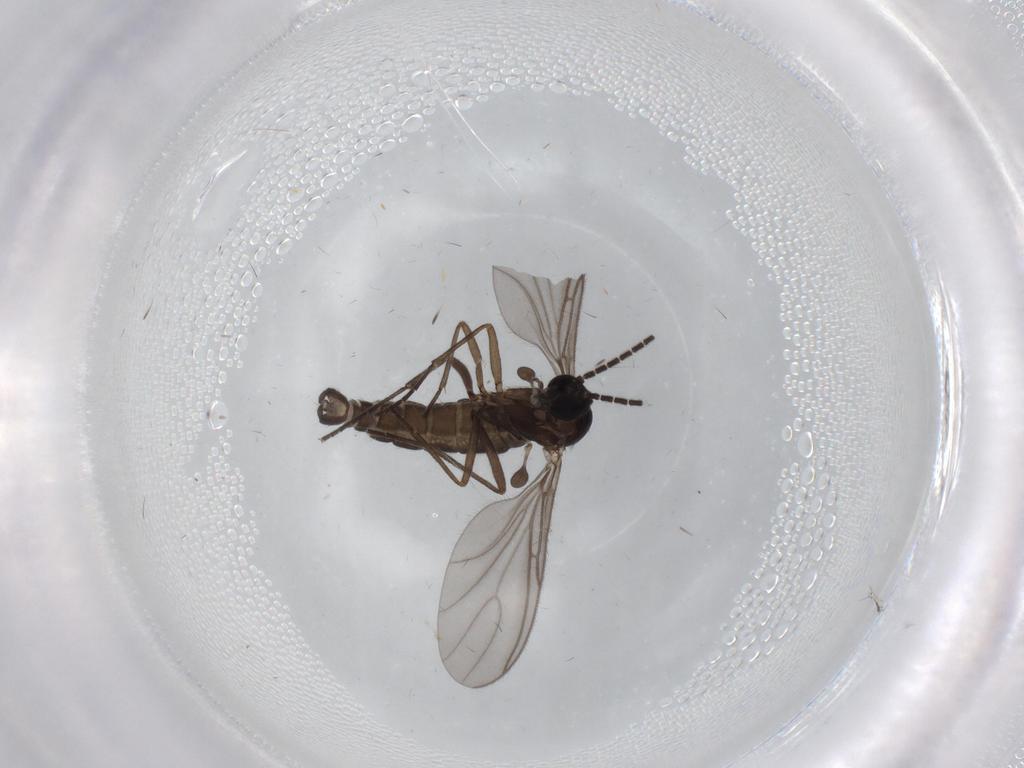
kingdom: Animalia
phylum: Arthropoda
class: Insecta
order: Diptera
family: Sciaridae
